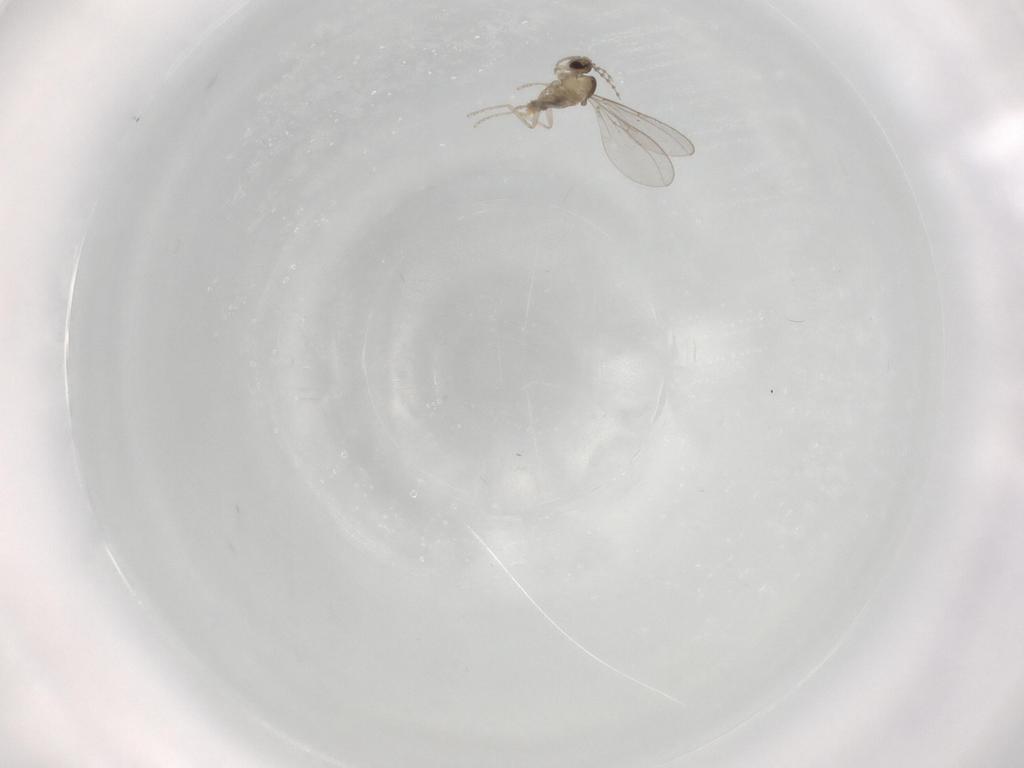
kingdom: Animalia
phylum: Arthropoda
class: Insecta
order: Diptera
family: Cecidomyiidae
